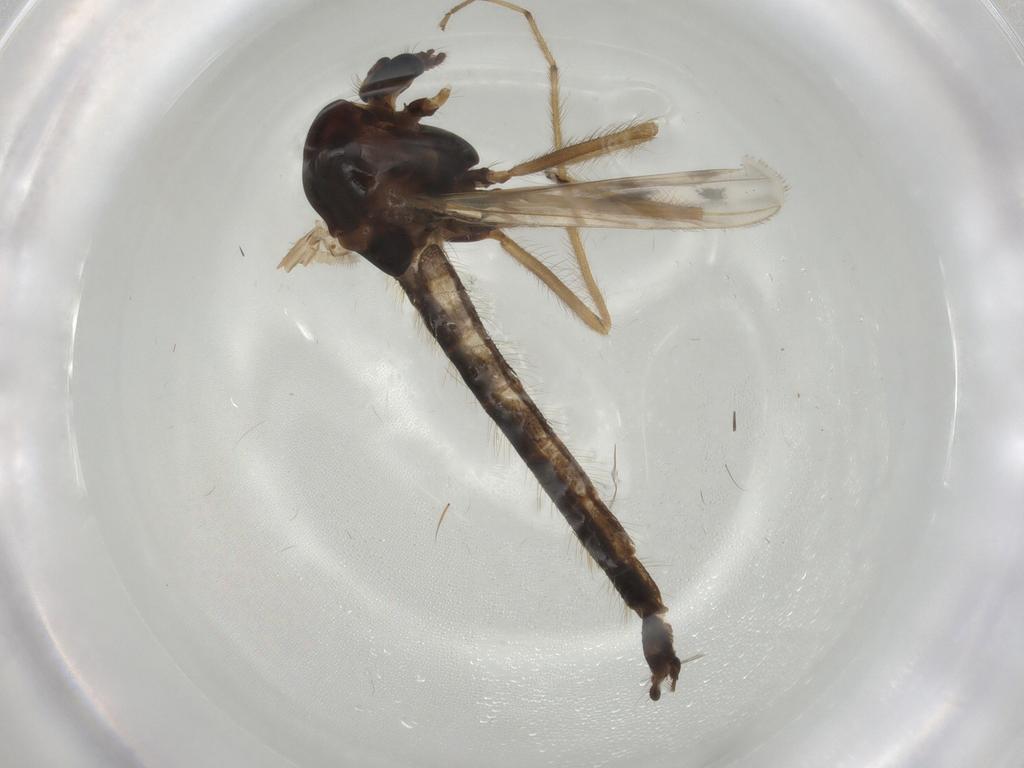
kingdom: Animalia
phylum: Arthropoda
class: Insecta
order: Diptera
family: Chironomidae
